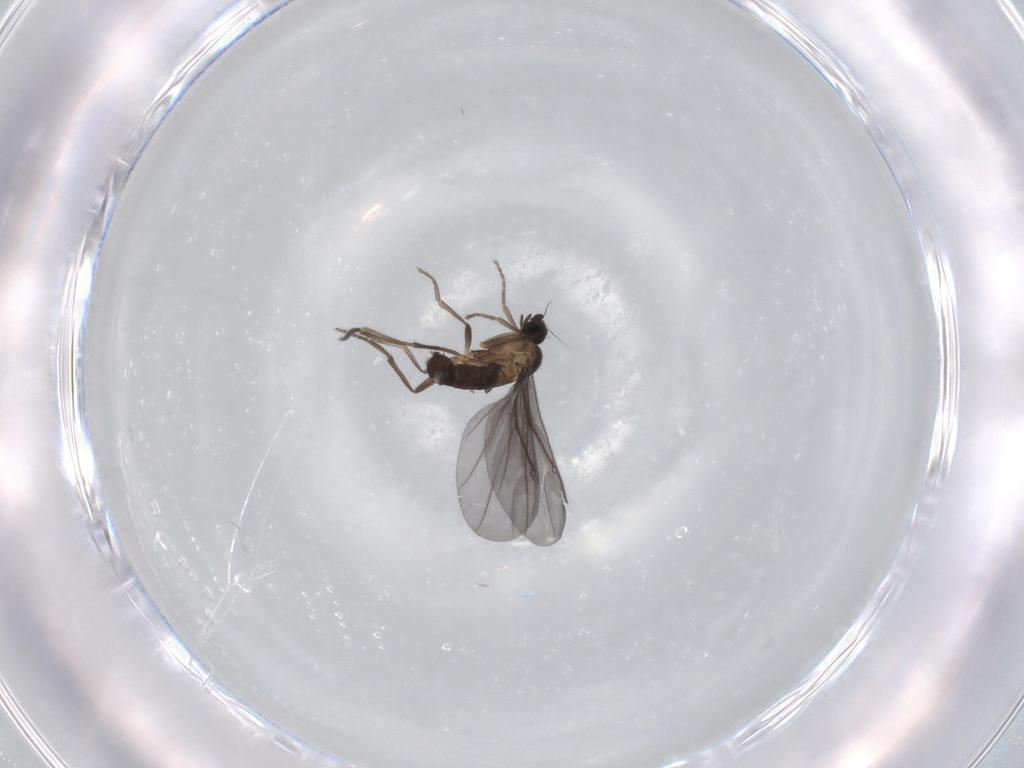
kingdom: Animalia
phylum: Arthropoda
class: Insecta
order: Diptera
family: Phoridae
